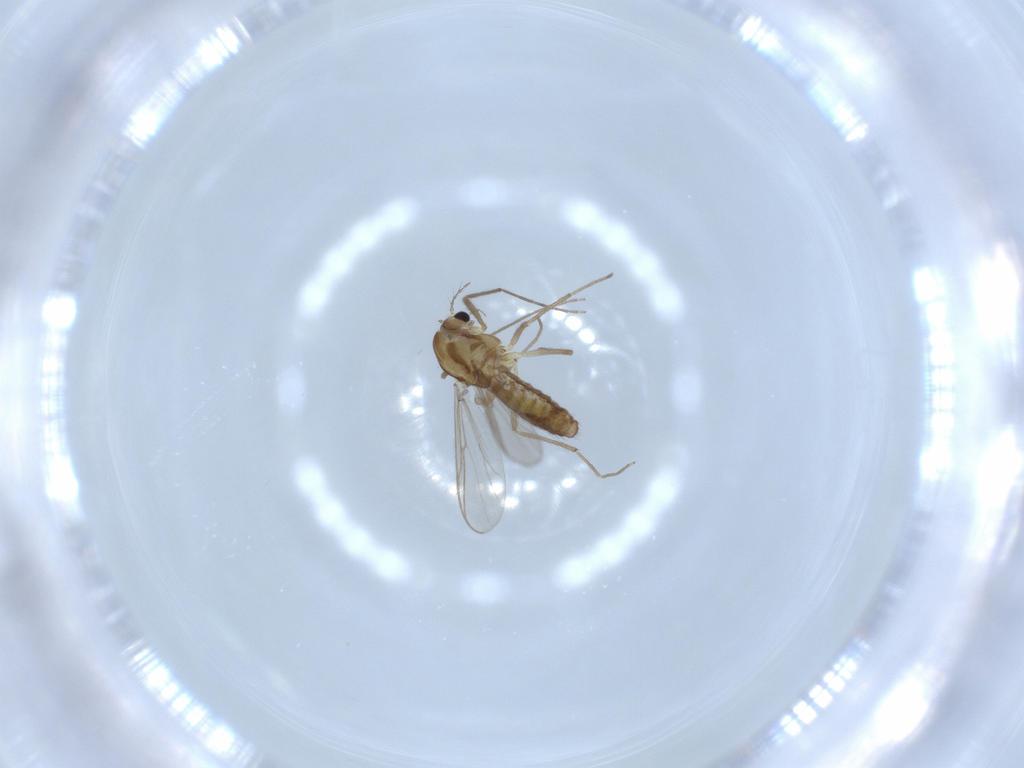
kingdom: Animalia
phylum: Arthropoda
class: Insecta
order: Diptera
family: Chironomidae
